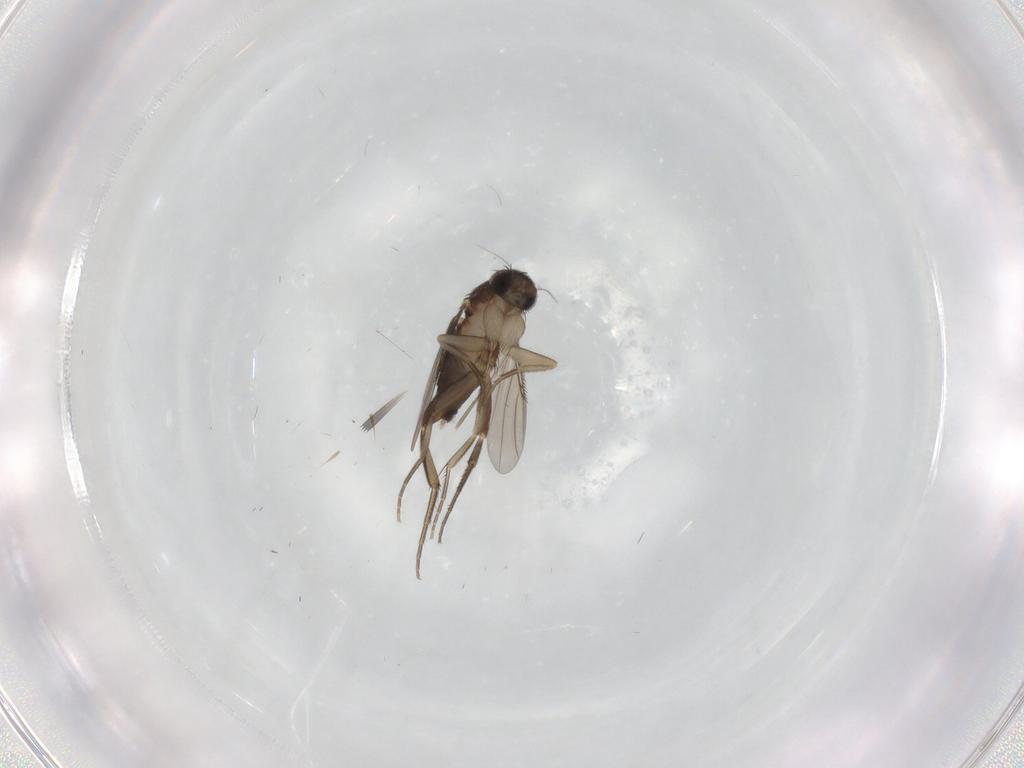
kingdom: Animalia
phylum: Arthropoda
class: Insecta
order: Diptera
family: Phoridae
